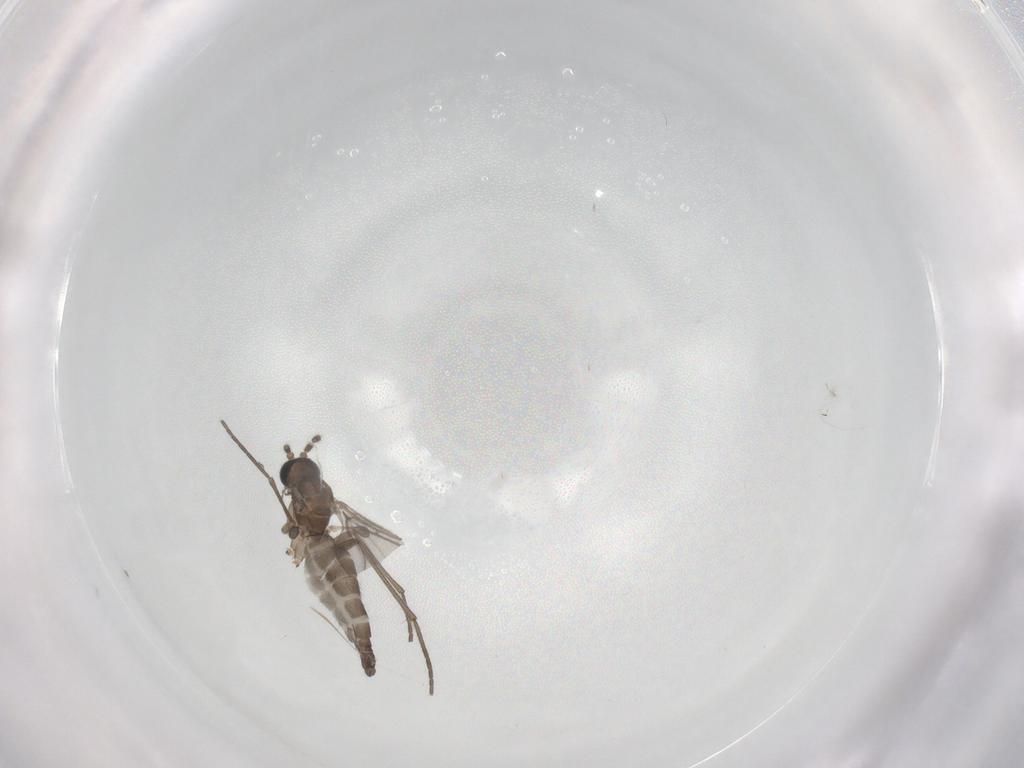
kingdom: Animalia
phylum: Arthropoda
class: Insecta
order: Diptera
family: Sciaridae
